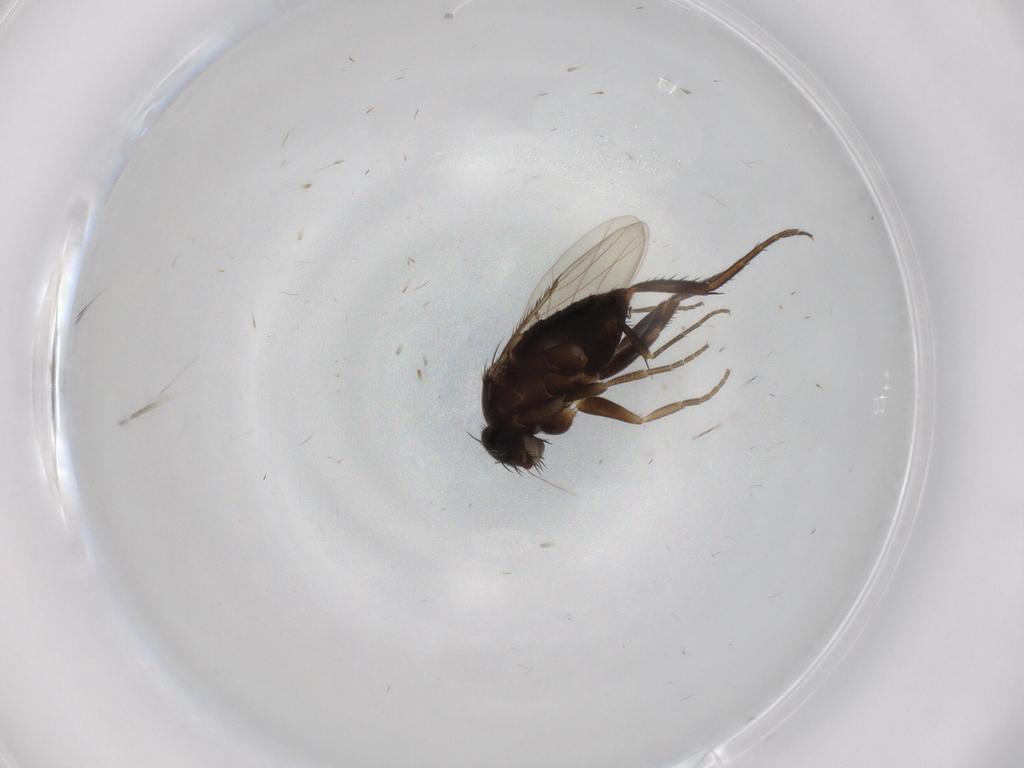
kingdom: Animalia
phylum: Arthropoda
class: Insecta
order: Diptera
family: Phoridae
